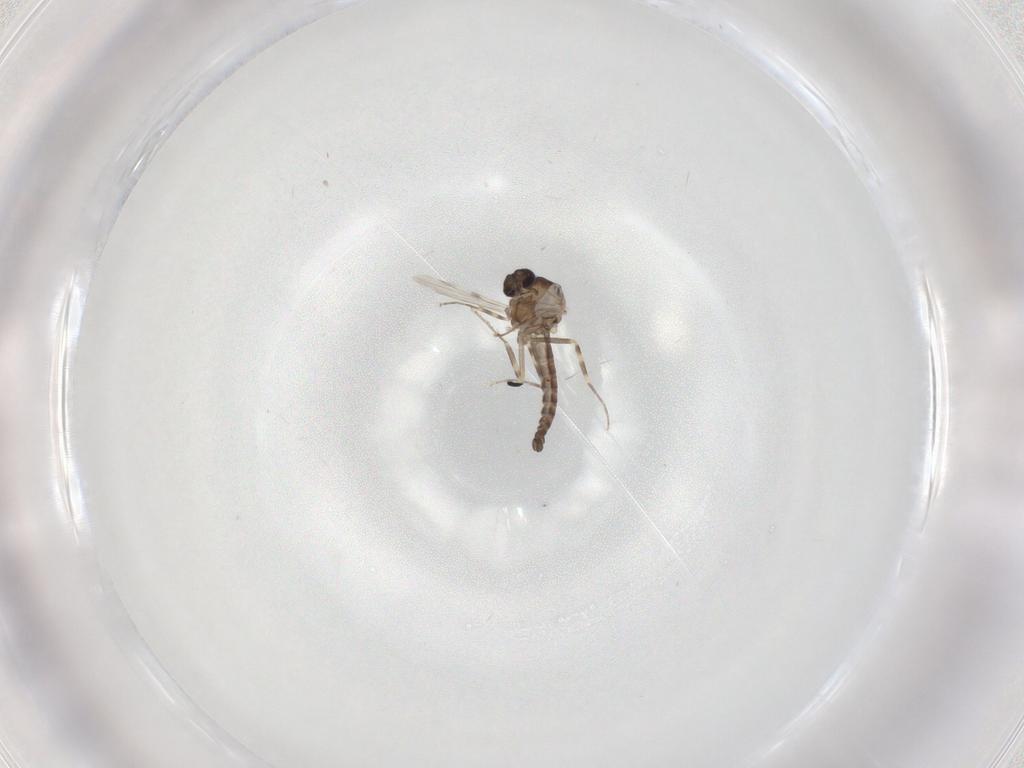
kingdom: Animalia
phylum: Arthropoda
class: Insecta
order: Diptera
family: Ceratopogonidae
